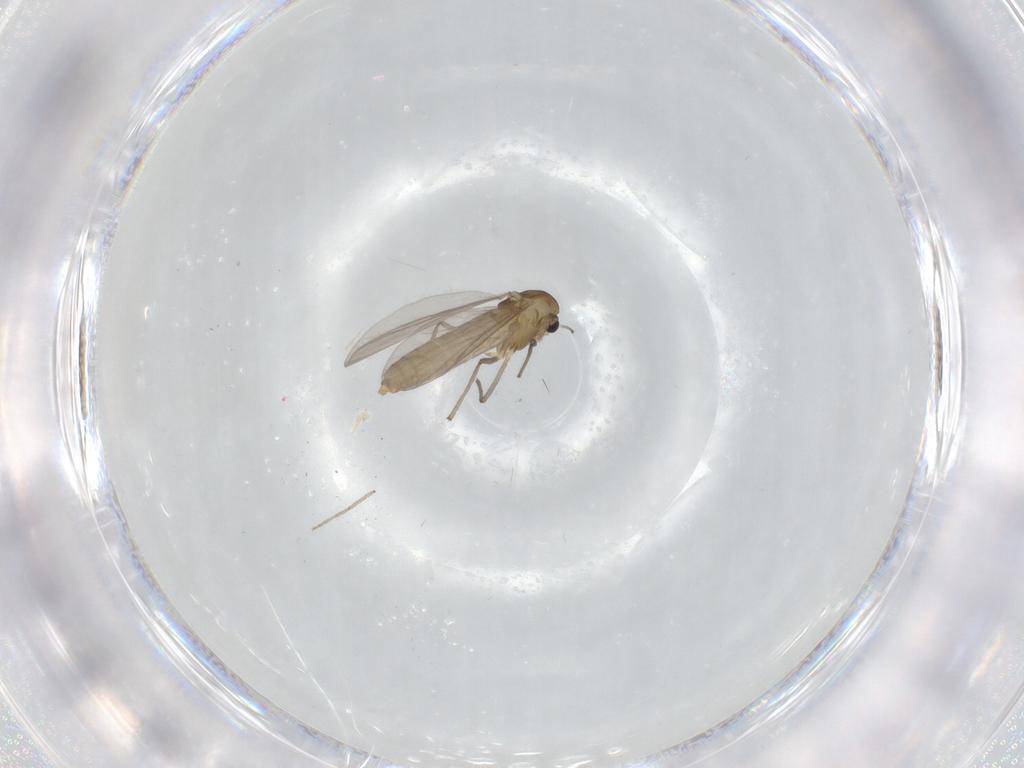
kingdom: Animalia
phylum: Arthropoda
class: Insecta
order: Diptera
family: Chironomidae
